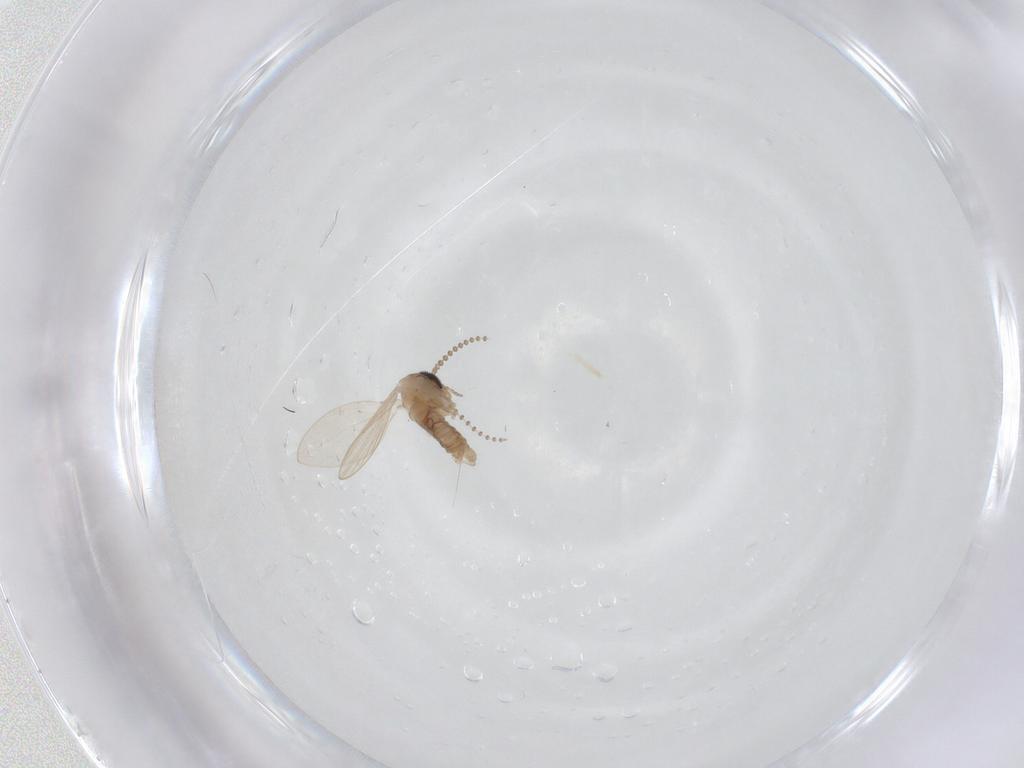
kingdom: Animalia
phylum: Arthropoda
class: Insecta
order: Diptera
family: Psychodidae
